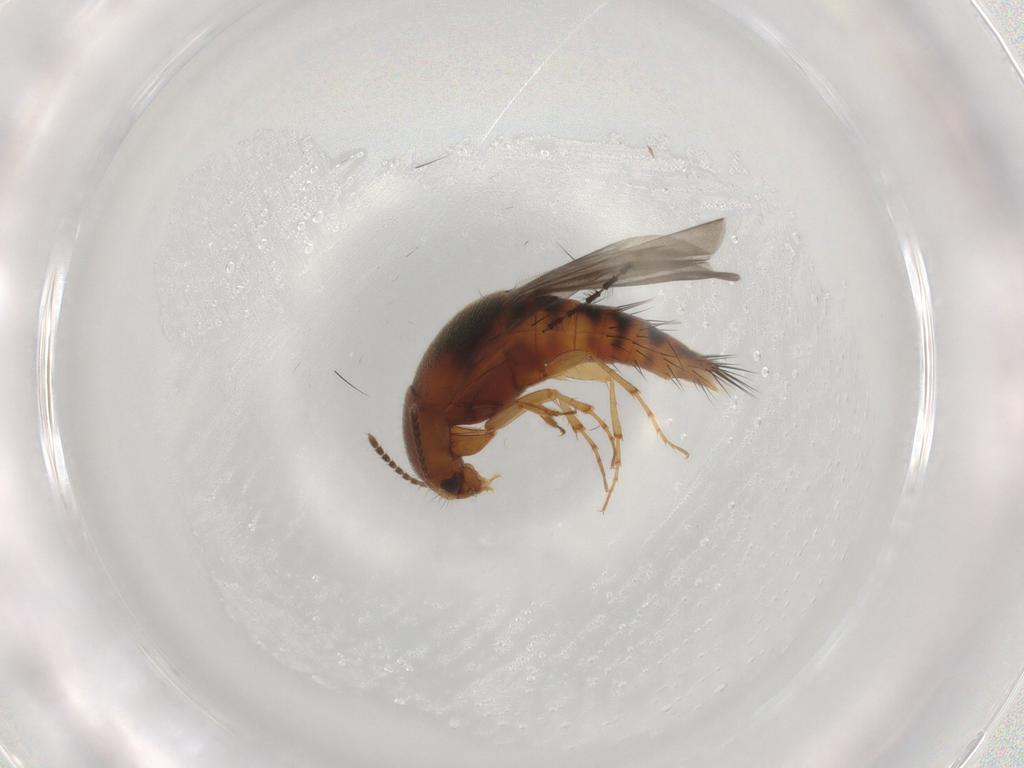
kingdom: Animalia
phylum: Arthropoda
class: Insecta
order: Coleoptera
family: Staphylinidae
